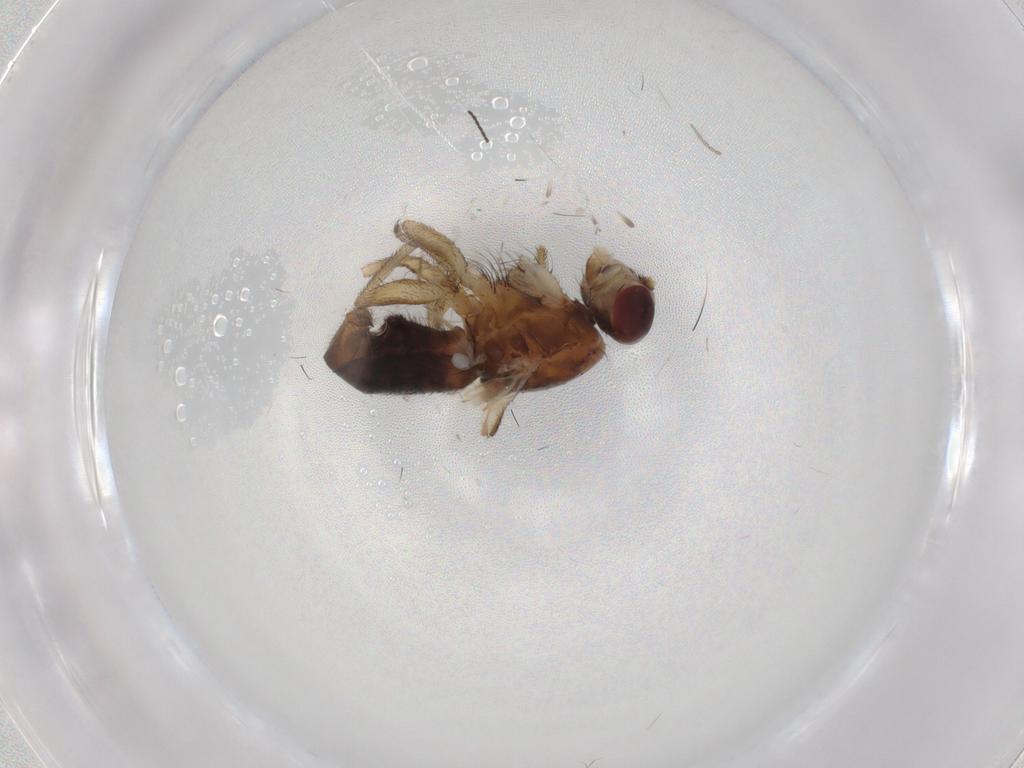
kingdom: Animalia
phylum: Arthropoda
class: Insecta
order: Diptera
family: Heleomyzidae
